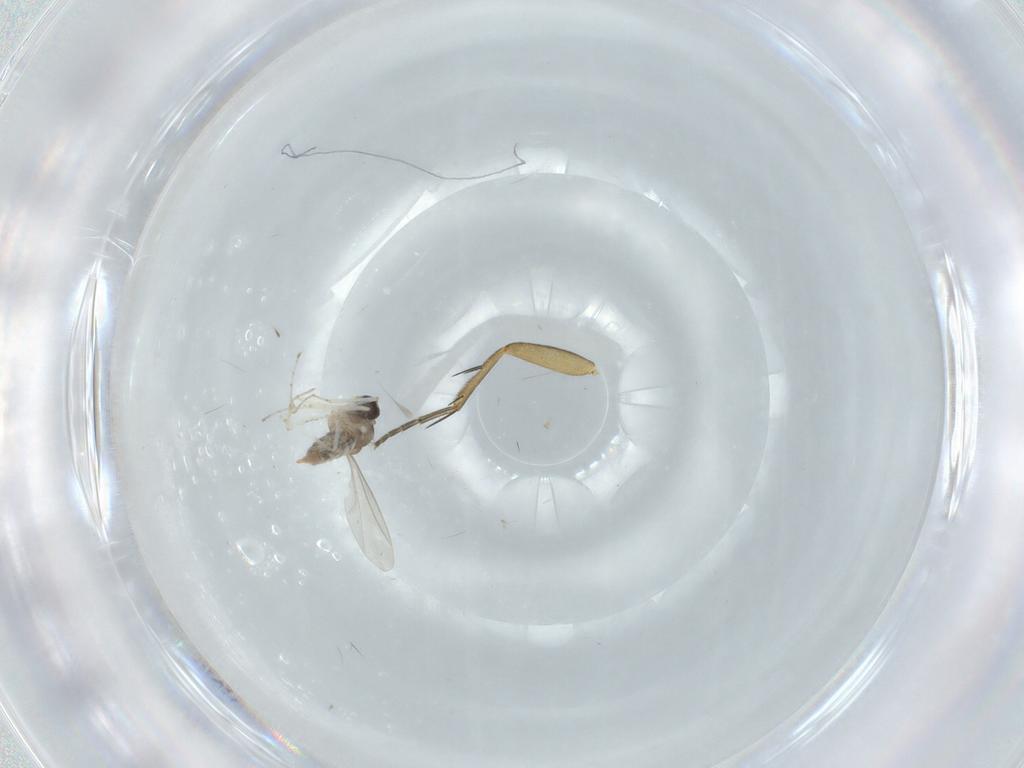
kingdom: Animalia
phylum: Arthropoda
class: Insecta
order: Diptera
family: Cecidomyiidae
